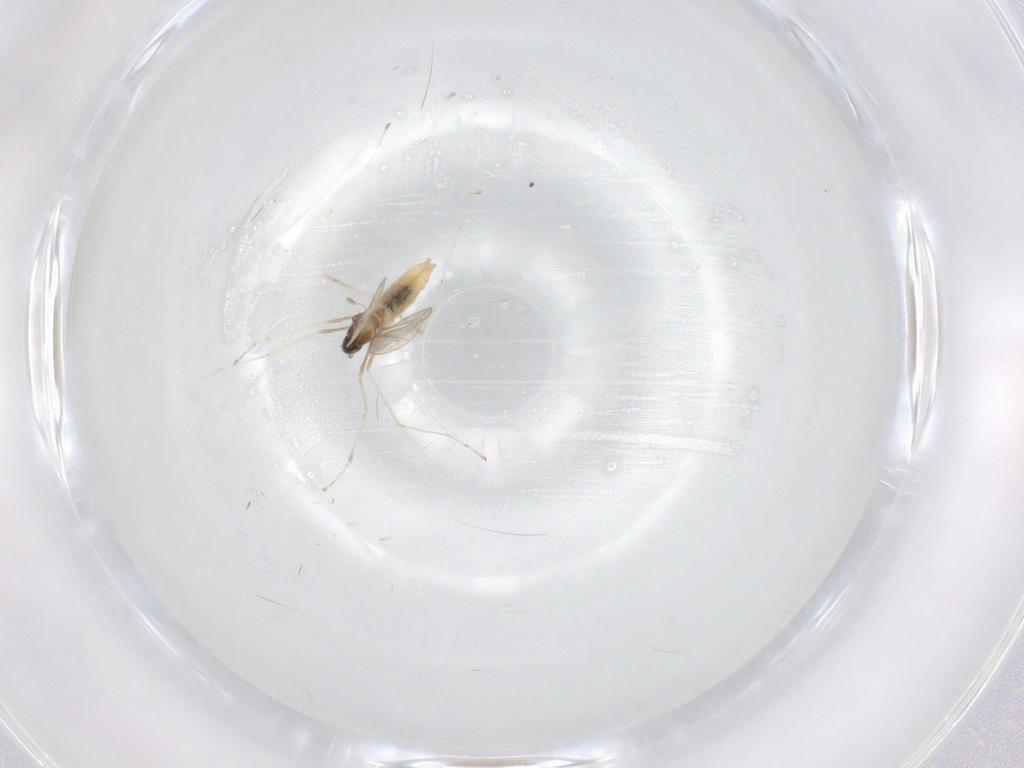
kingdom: Animalia
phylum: Arthropoda
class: Insecta
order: Diptera
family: Cecidomyiidae
